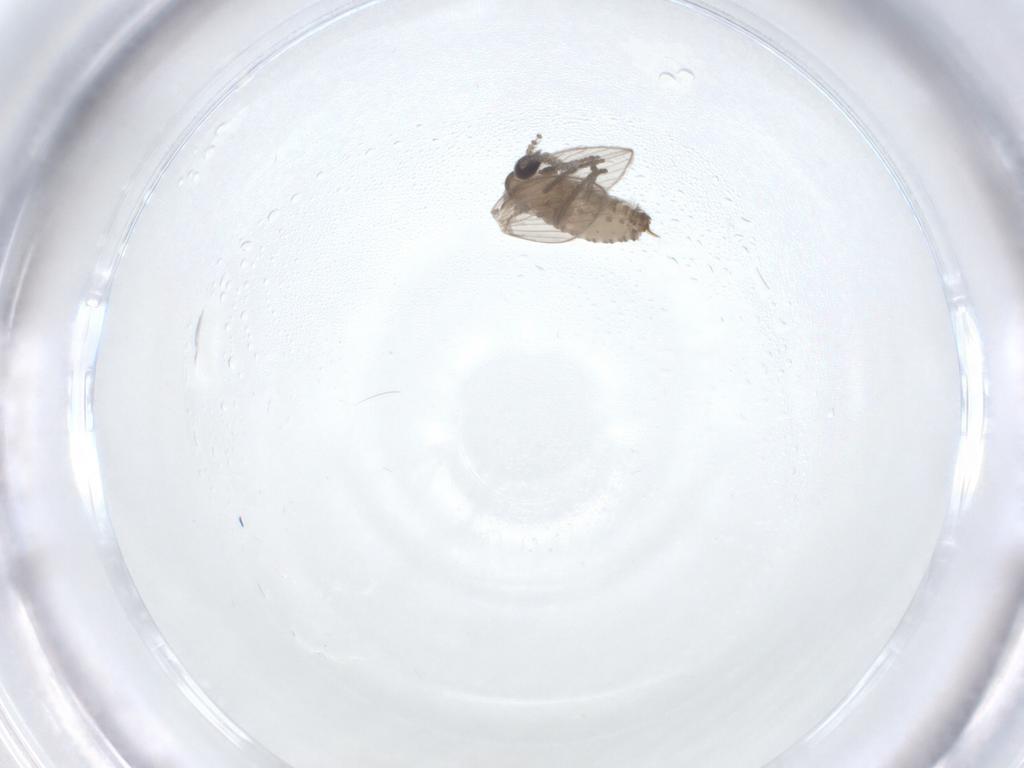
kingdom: Animalia
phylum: Arthropoda
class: Insecta
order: Diptera
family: Psychodidae
